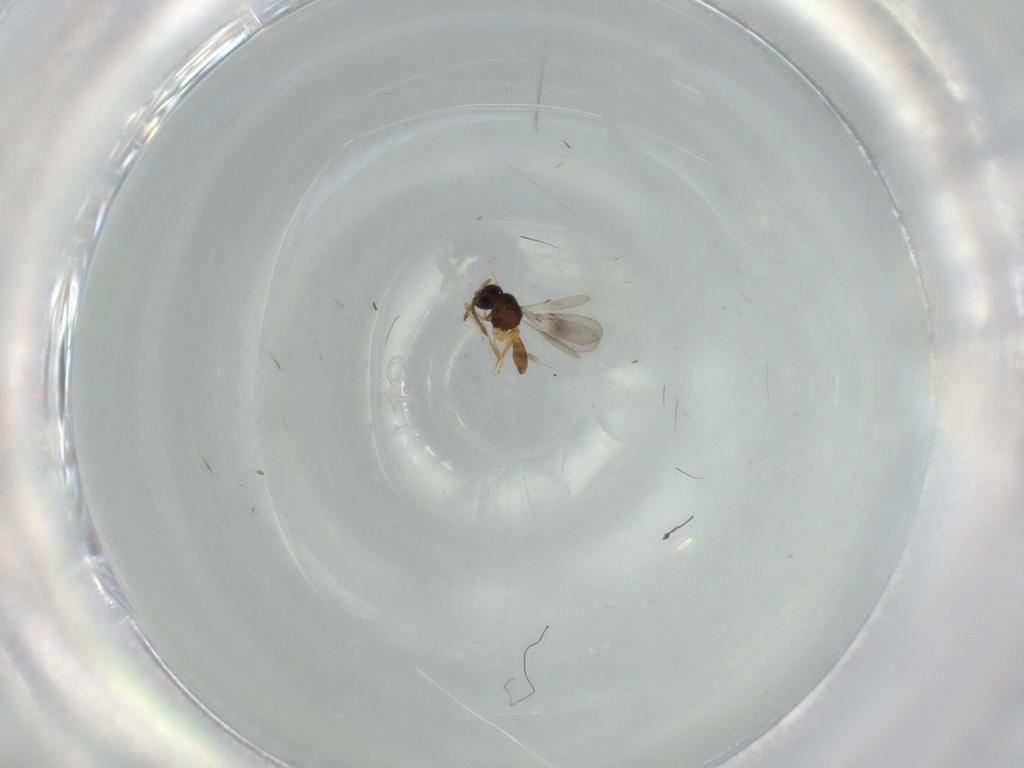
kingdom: Animalia
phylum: Arthropoda
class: Insecta
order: Hymenoptera
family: Scelionidae
